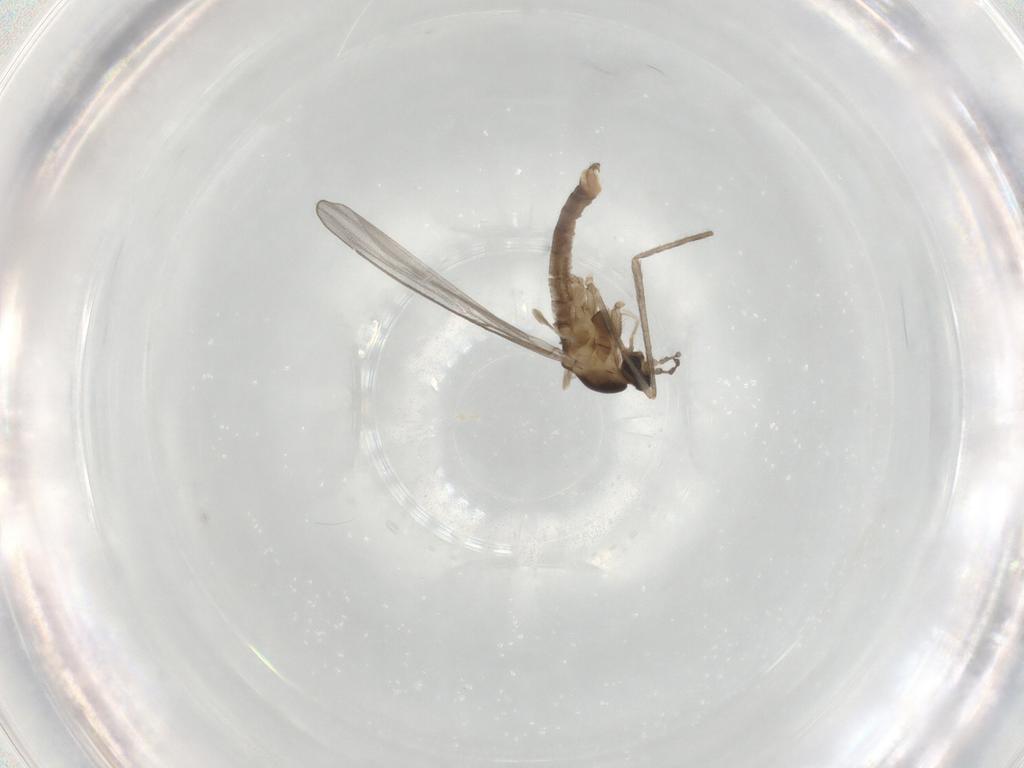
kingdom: Animalia
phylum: Arthropoda
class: Insecta
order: Diptera
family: Cecidomyiidae
